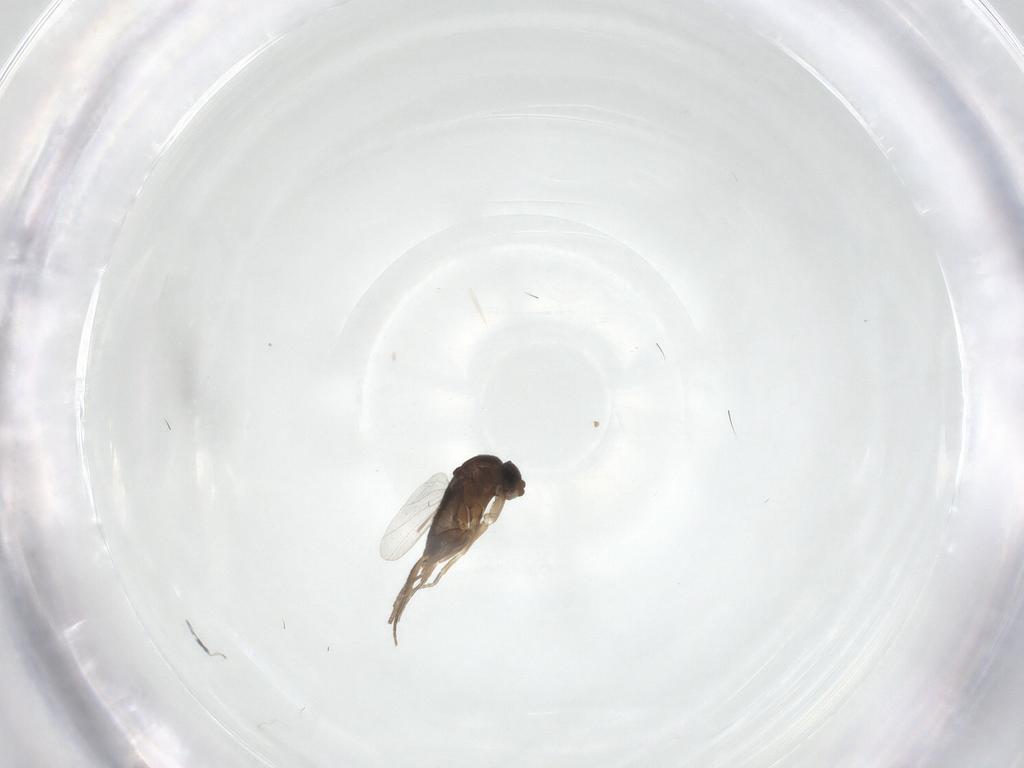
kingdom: Animalia
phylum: Arthropoda
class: Insecta
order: Diptera
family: Phoridae
